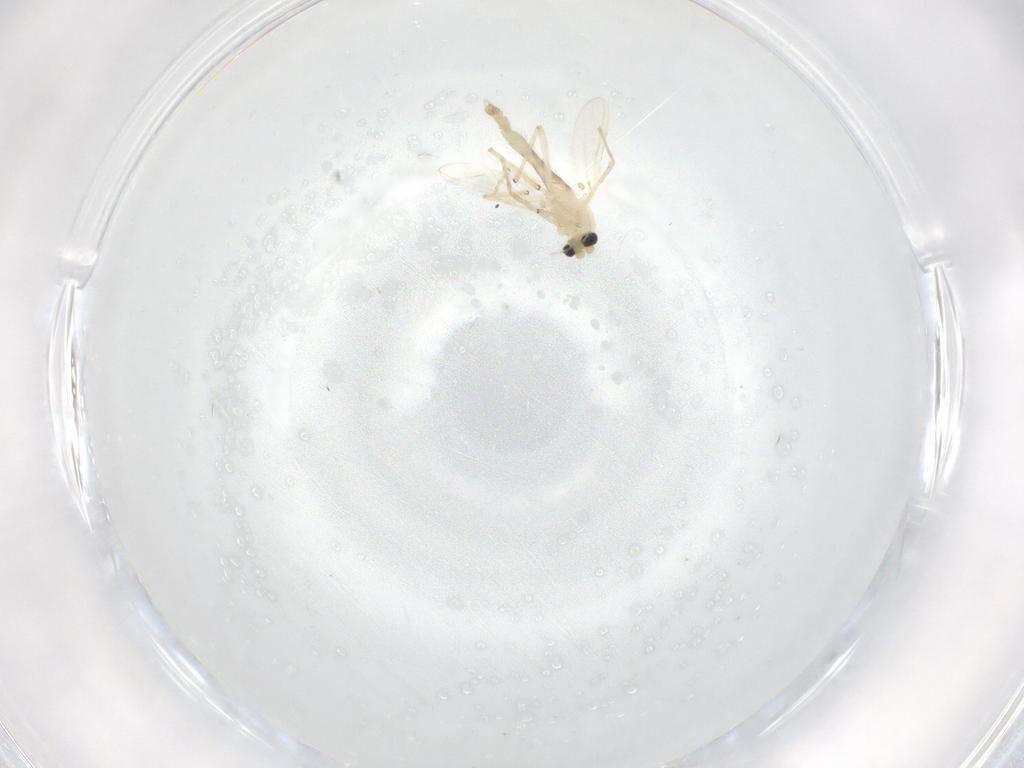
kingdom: Animalia
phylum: Arthropoda
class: Insecta
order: Diptera
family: Chironomidae
